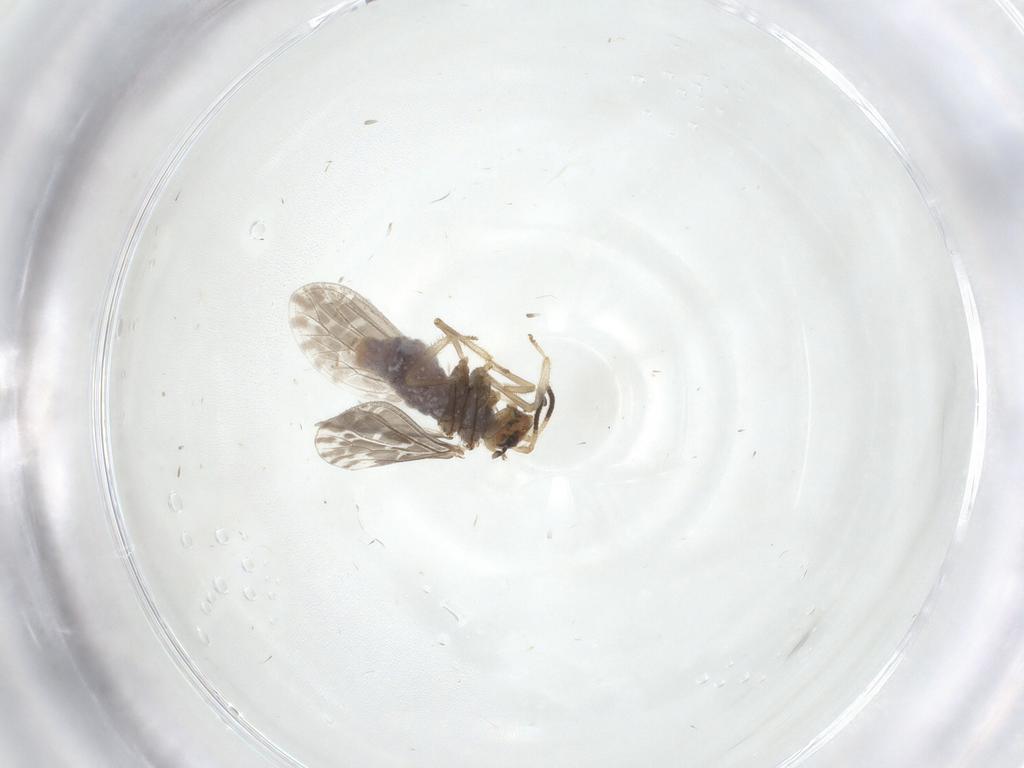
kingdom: Animalia
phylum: Arthropoda
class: Insecta
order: Neuroptera
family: Coniopterygidae
